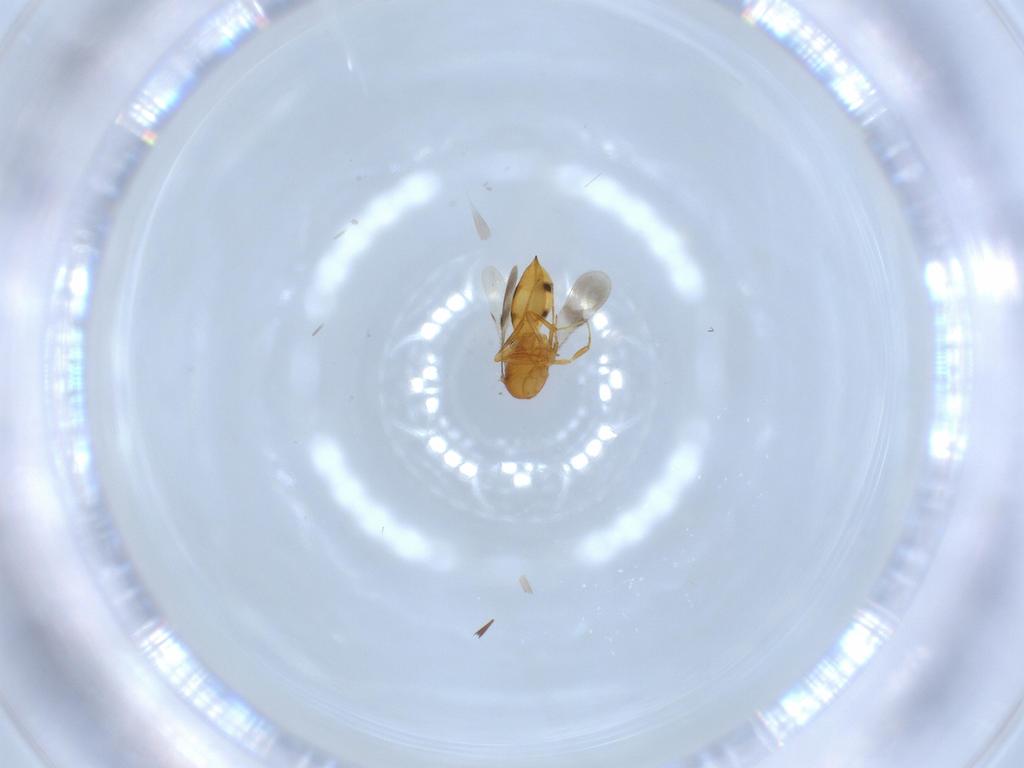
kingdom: Animalia
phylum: Arthropoda
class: Insecta
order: Hymenoptera
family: Scelionidae
